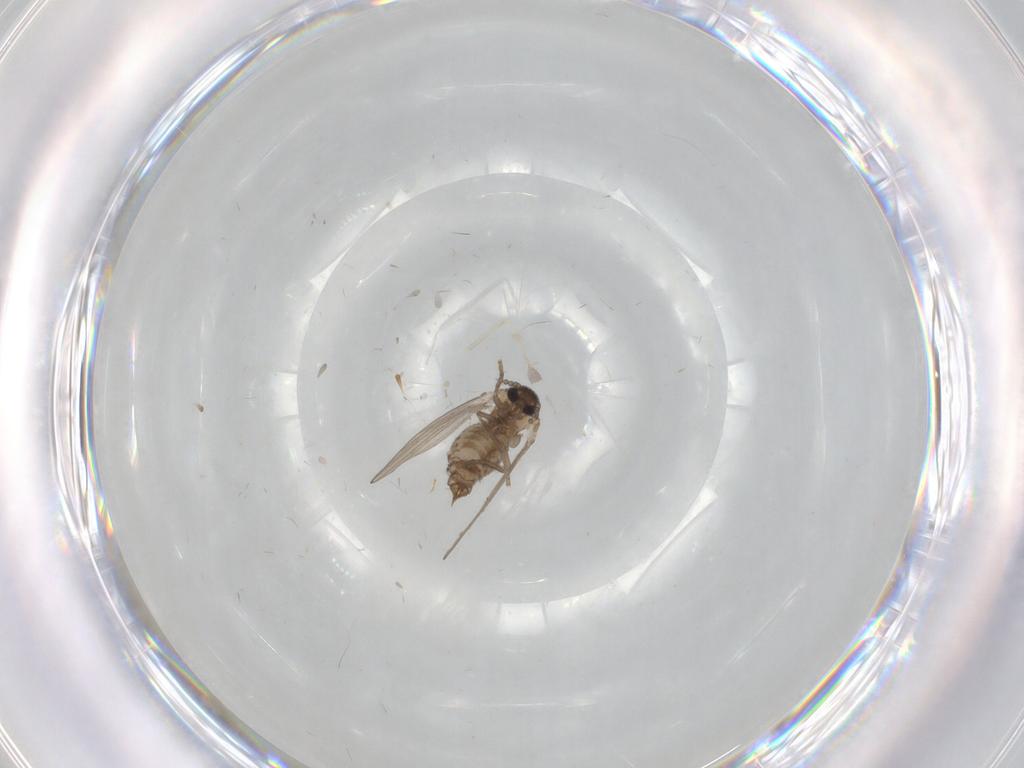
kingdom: Animalia
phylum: Arthropoda
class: Insecta
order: Diptera
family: Psychodidae
